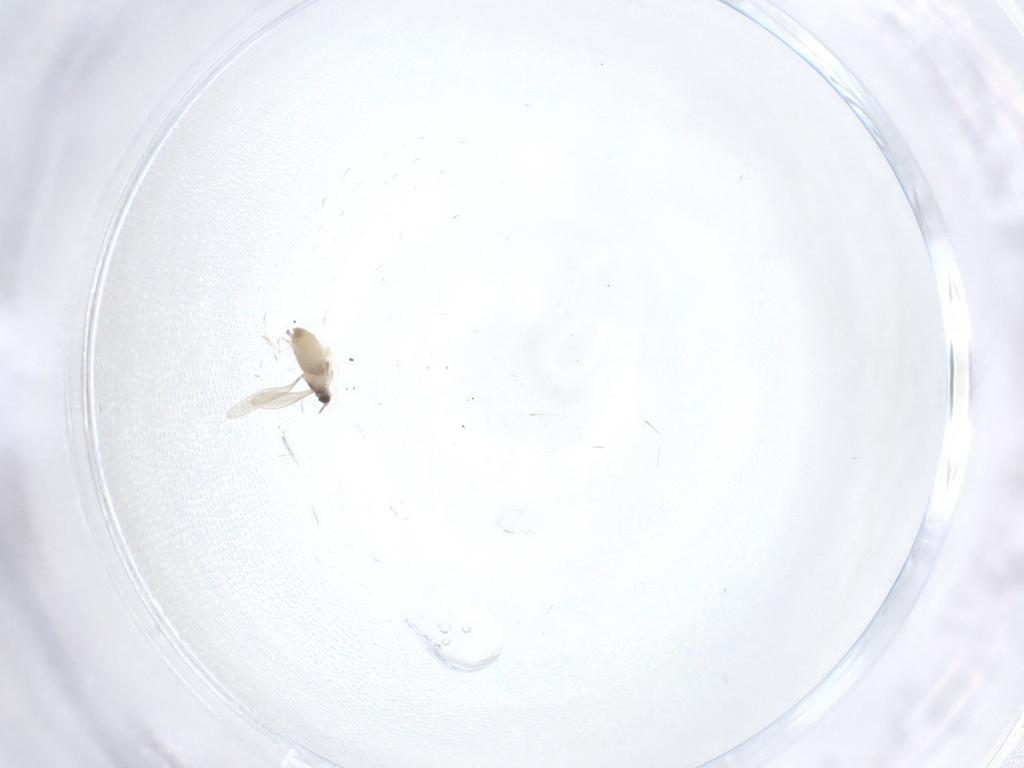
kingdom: Animalia
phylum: Arthropoda
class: Insecta
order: Diptera
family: Cecidomyiidae
